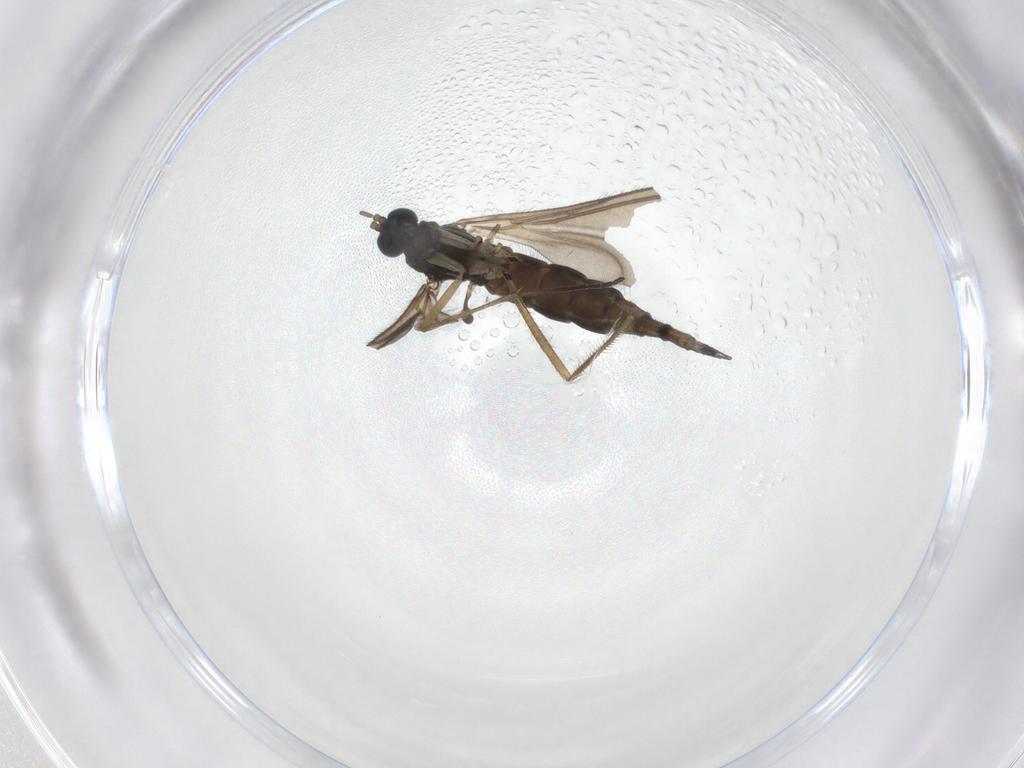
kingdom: Animalia
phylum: Arthropoda
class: Insecta
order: Diptera
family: Sciaridae
